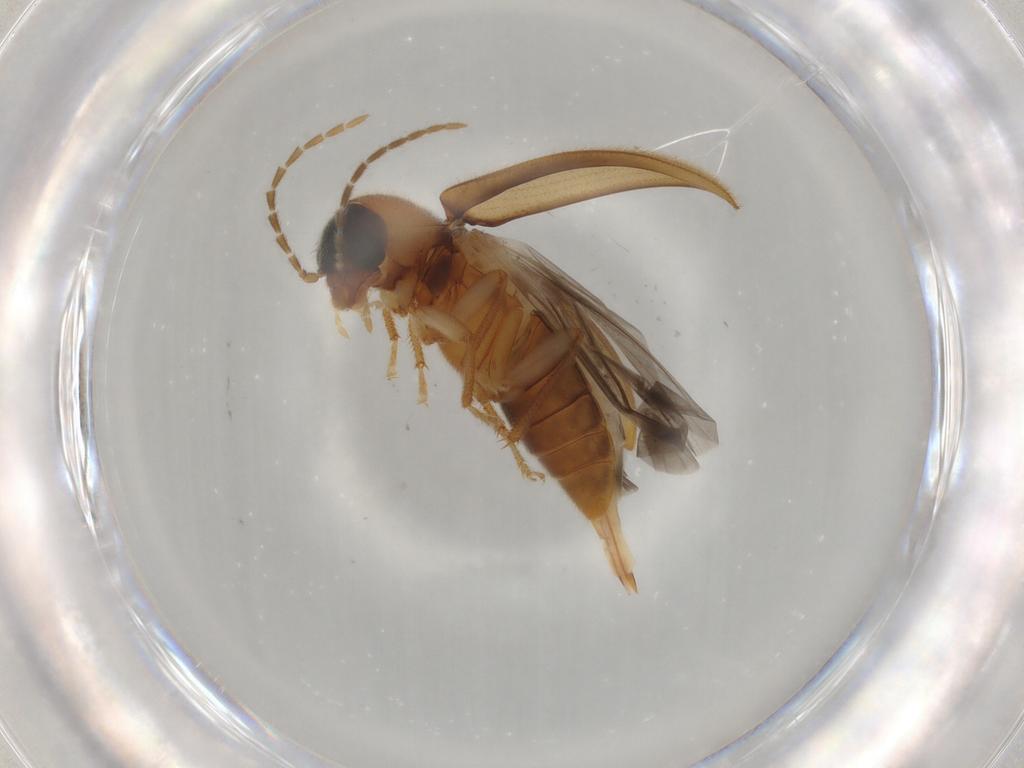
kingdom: Animalia
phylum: Arthropoda
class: Insecta
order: Coleoptera
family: Ptilodactylidae
